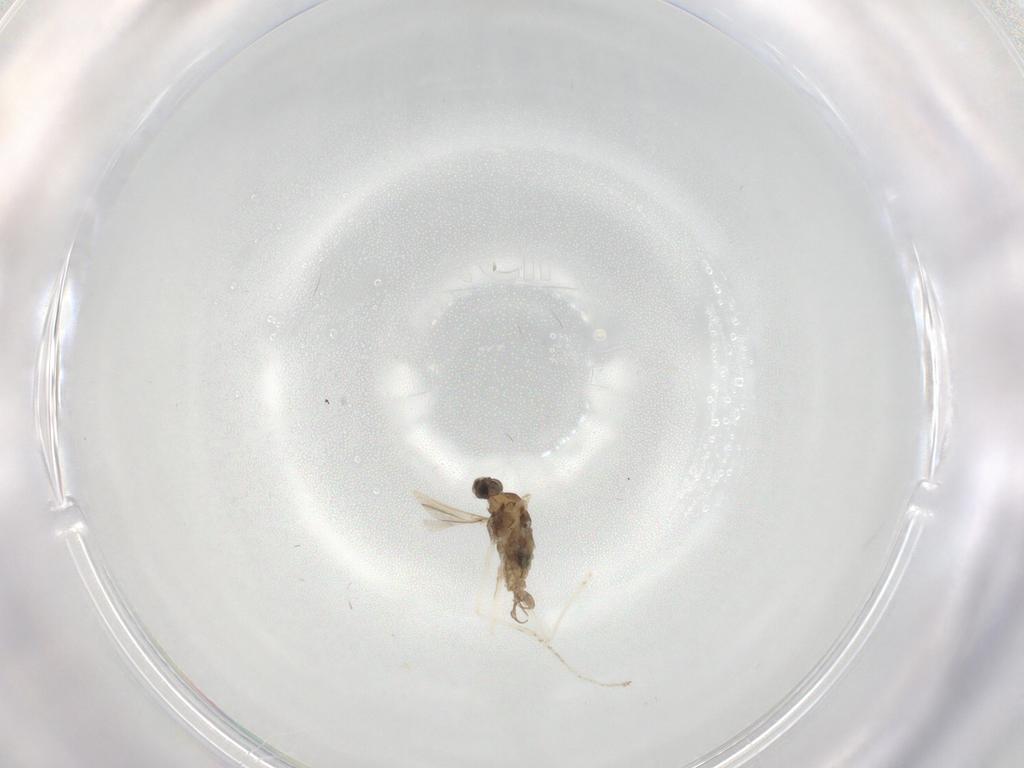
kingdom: Animalia
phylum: Arthropoda
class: Insecta
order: Diptera
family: Cecidomyiidae
